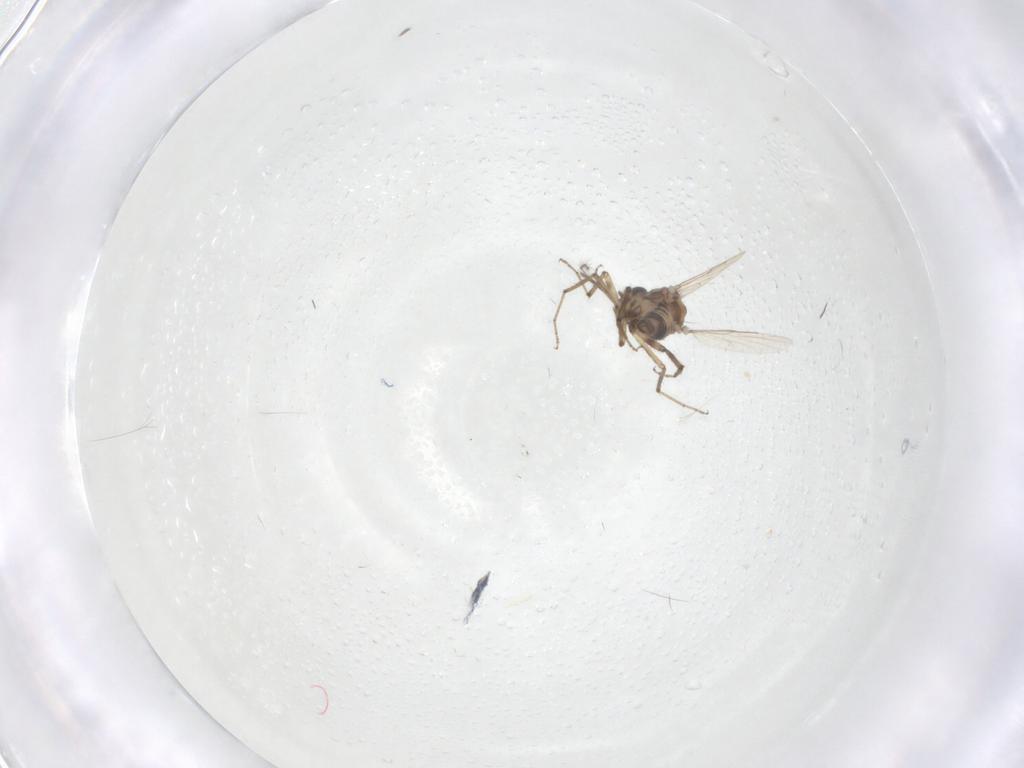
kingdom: Animalia
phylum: Arthropoda
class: Insecta
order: Diptera
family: Ceratopogonidae
